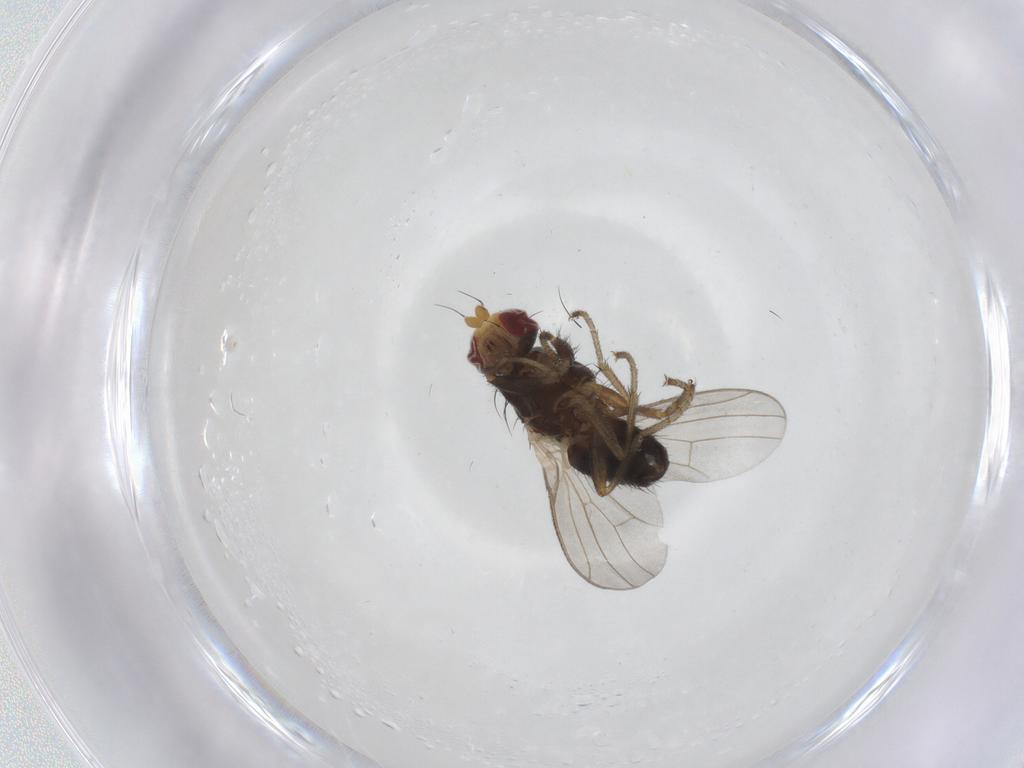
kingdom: Animalia
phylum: Arthropoda
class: Insecta
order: Diptera
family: Heleomyzidae
